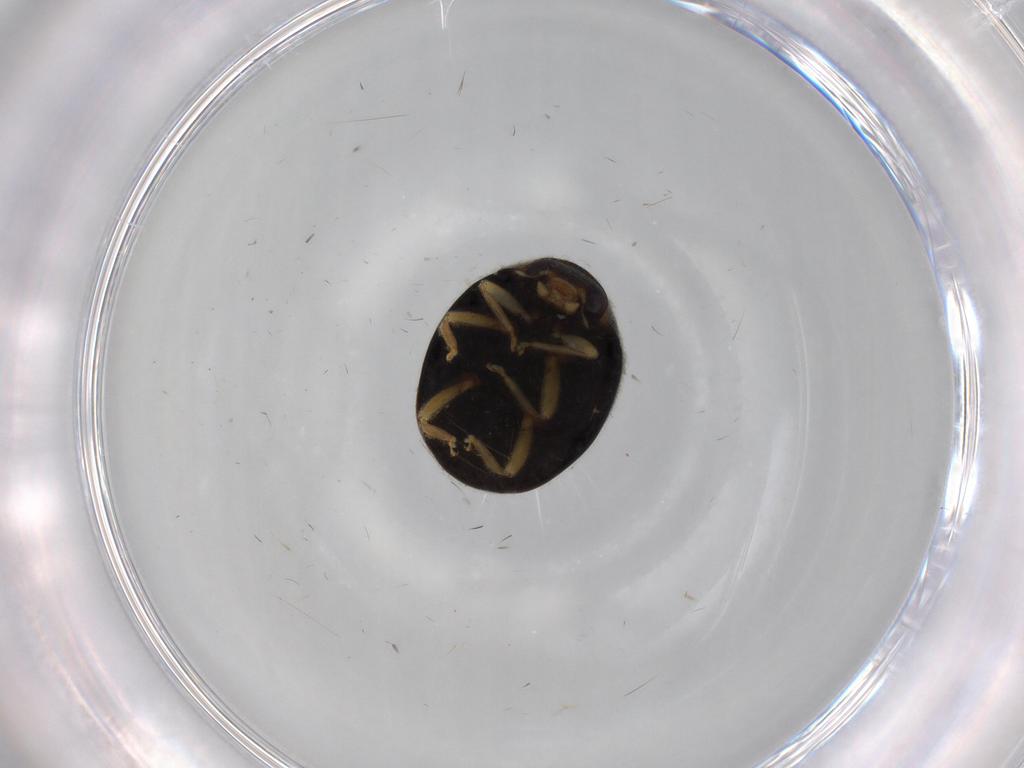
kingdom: Animalia
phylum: Arthropoda
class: Insecta
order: Coleoptera
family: Coccinellidae
